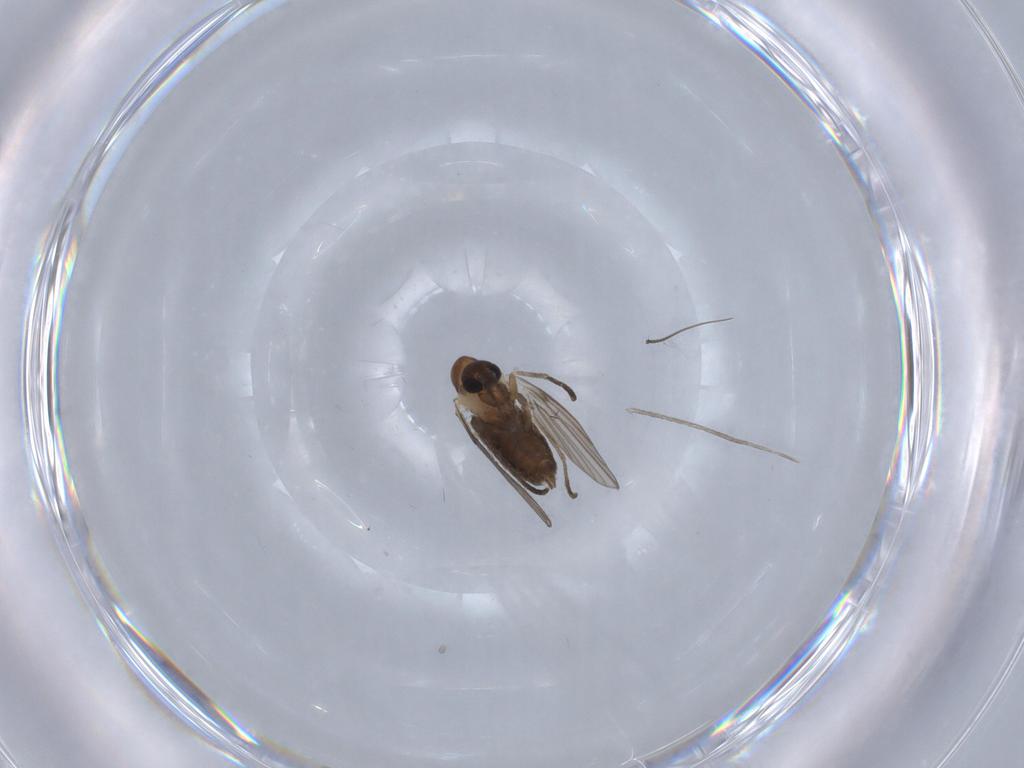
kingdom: Animalia
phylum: Arthropoda
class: Insecta
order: Diptera
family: Cecidomyiidae
